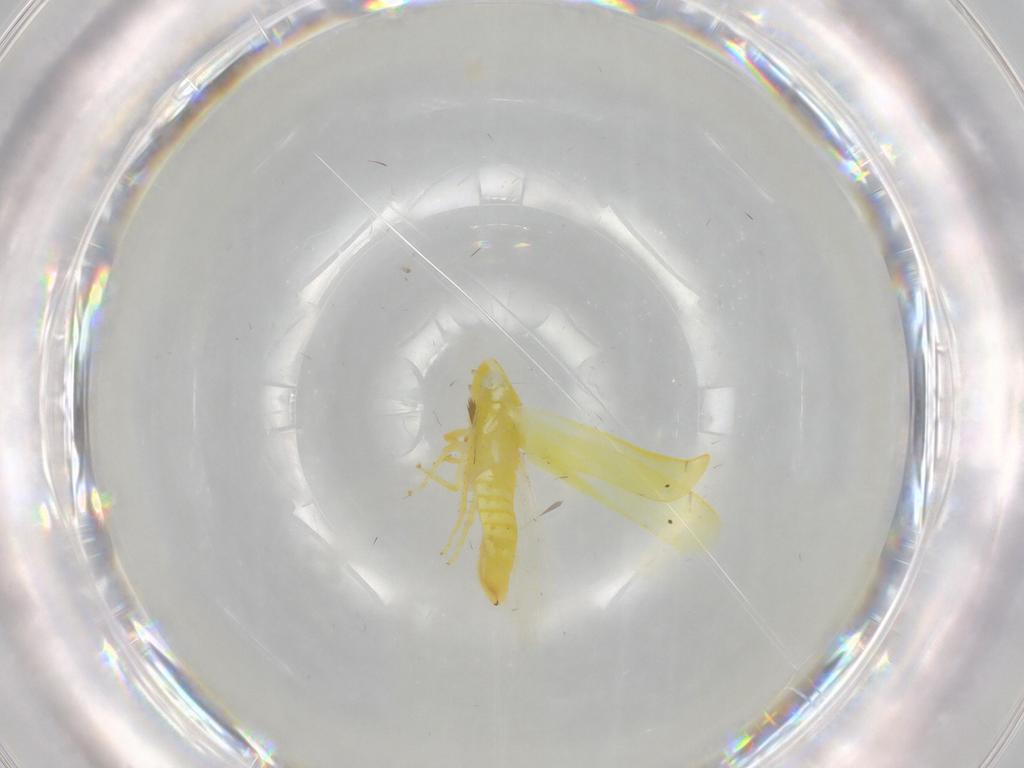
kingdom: Animalia
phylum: Arthropoda
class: Insecta
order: Hemiptera
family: Cicadellidae
